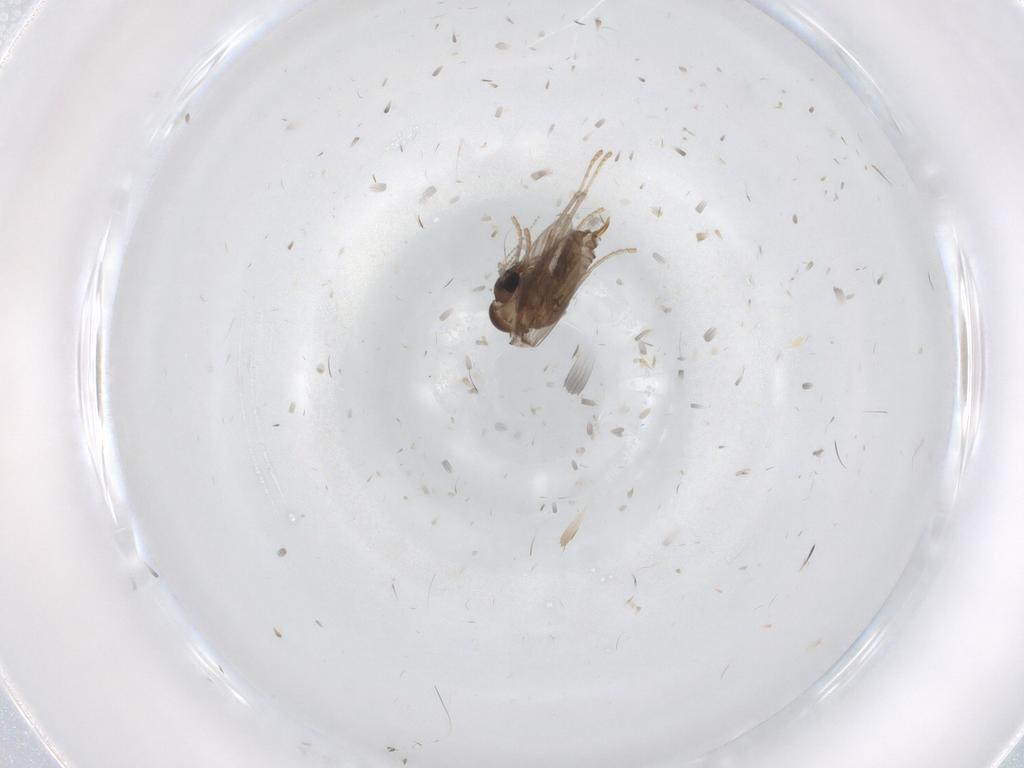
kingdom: Animalia
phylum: Arthropoda
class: Insecta
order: Diptera
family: Psychodidae
